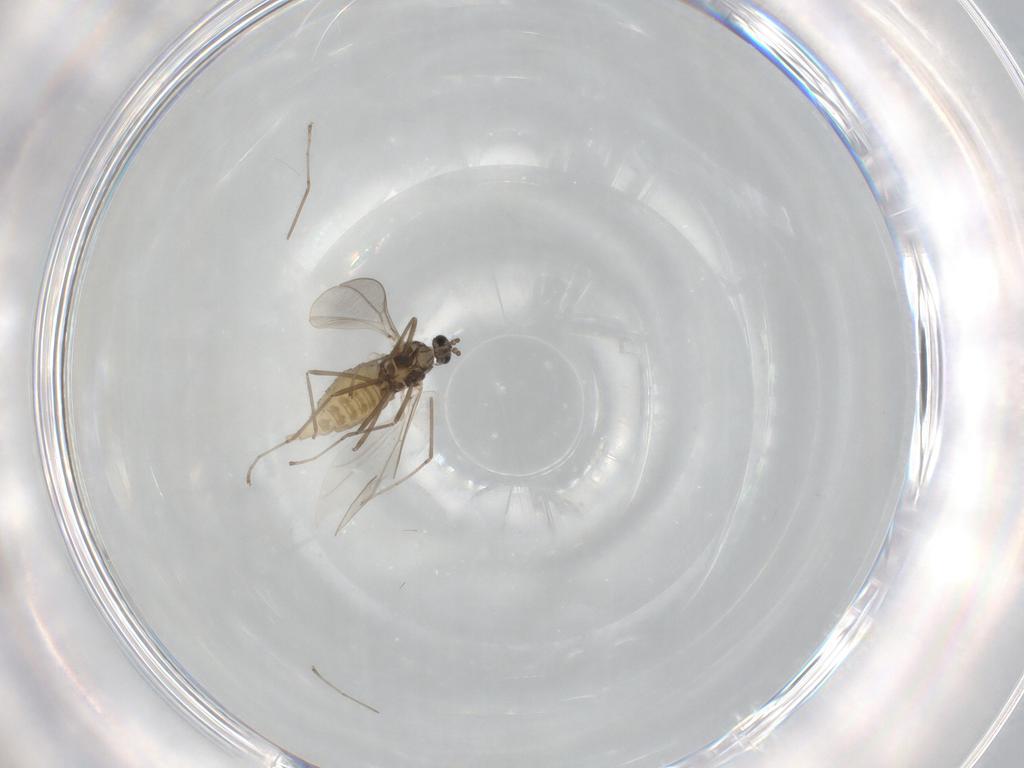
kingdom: Animalia
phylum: Arthropoda
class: Insecta
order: Diptera
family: Cecidomyiidae
